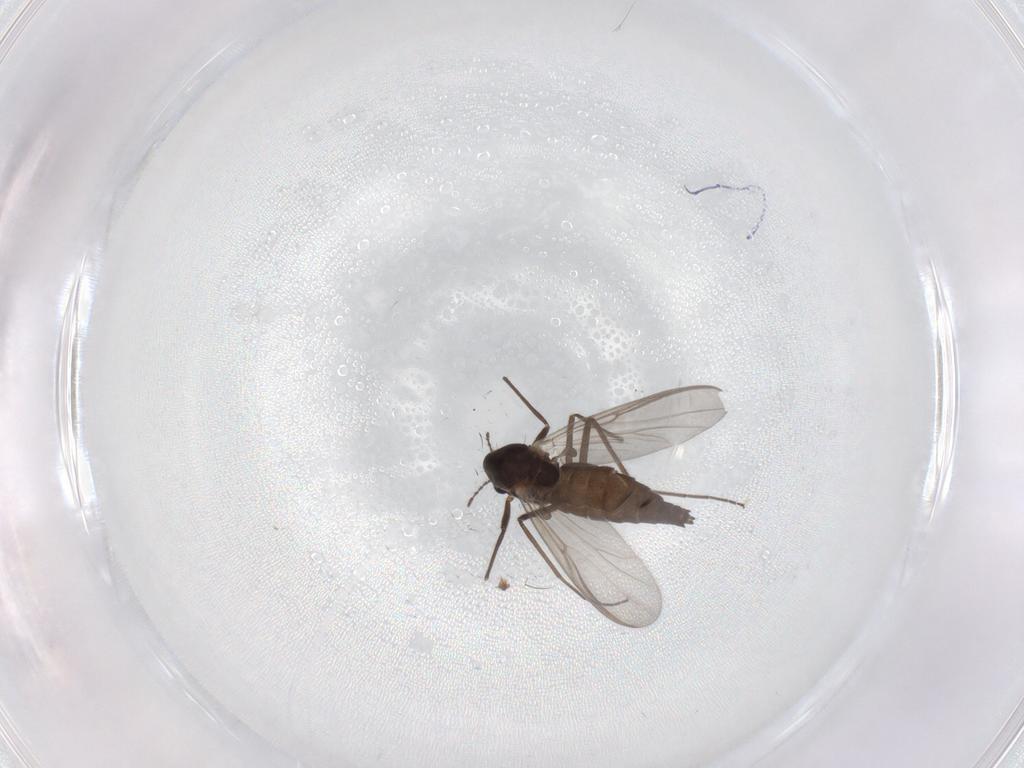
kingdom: Animalia
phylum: Arthropoda
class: Insecta
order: Diptera
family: Chironomidae
